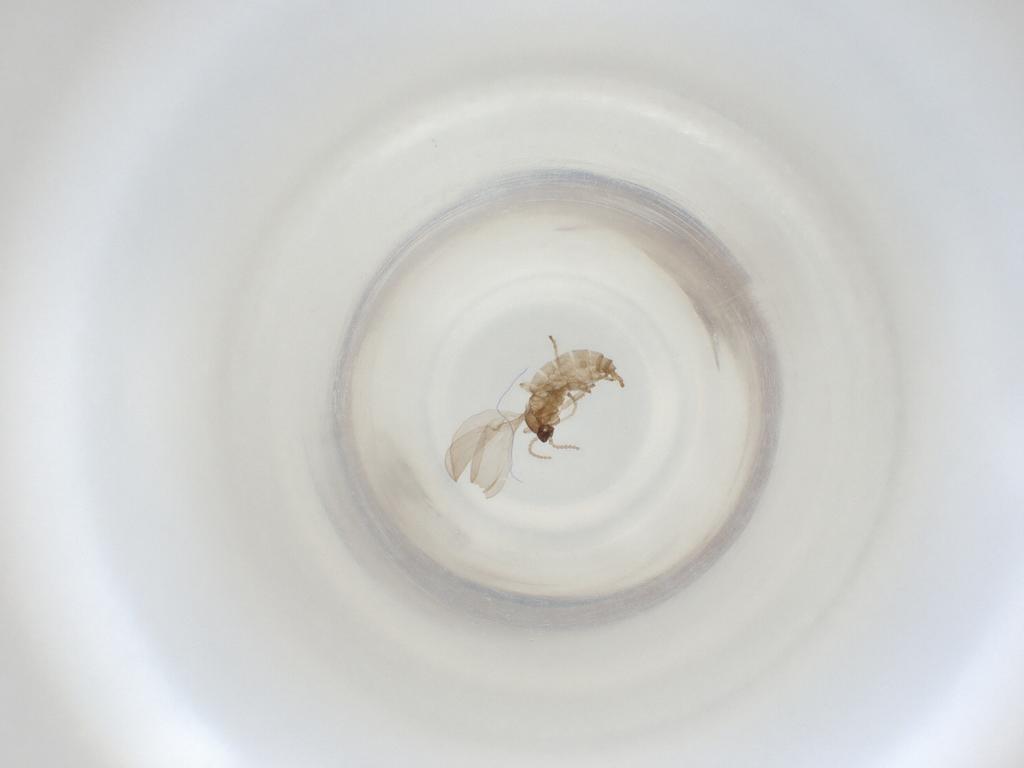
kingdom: Animalia
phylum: Arthropoda
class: Insecta
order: Diptera
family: Cecidomyiidae
